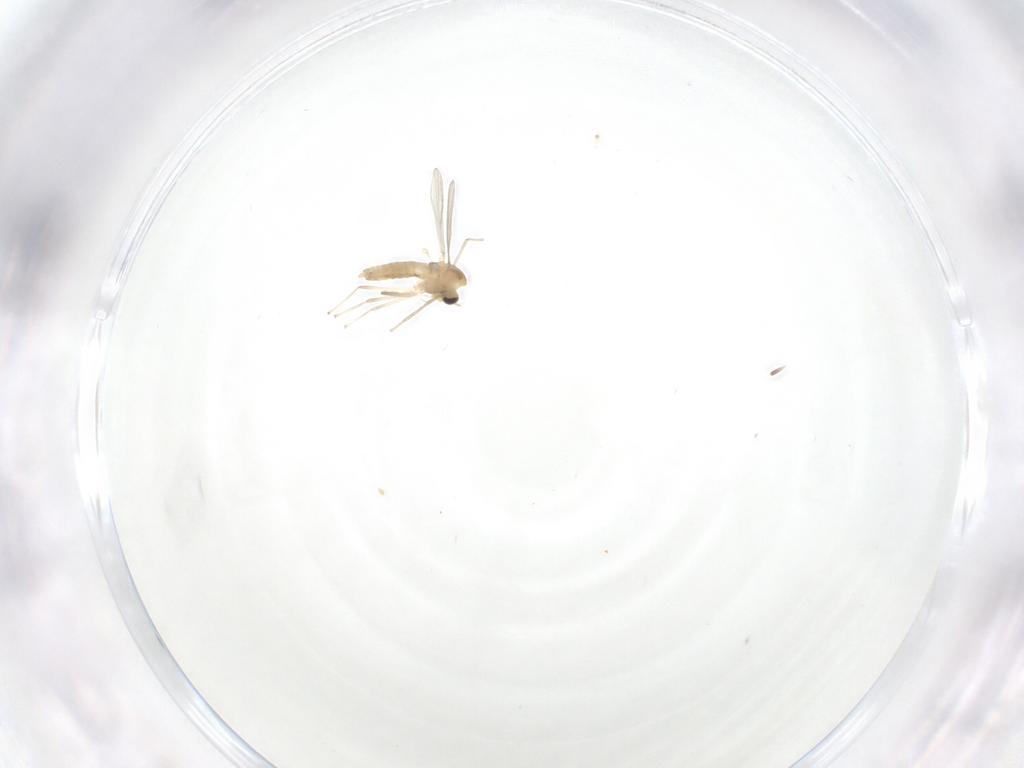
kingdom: Animalia
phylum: Arthropoda
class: Insecta
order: Diptera
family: Chironomidae
